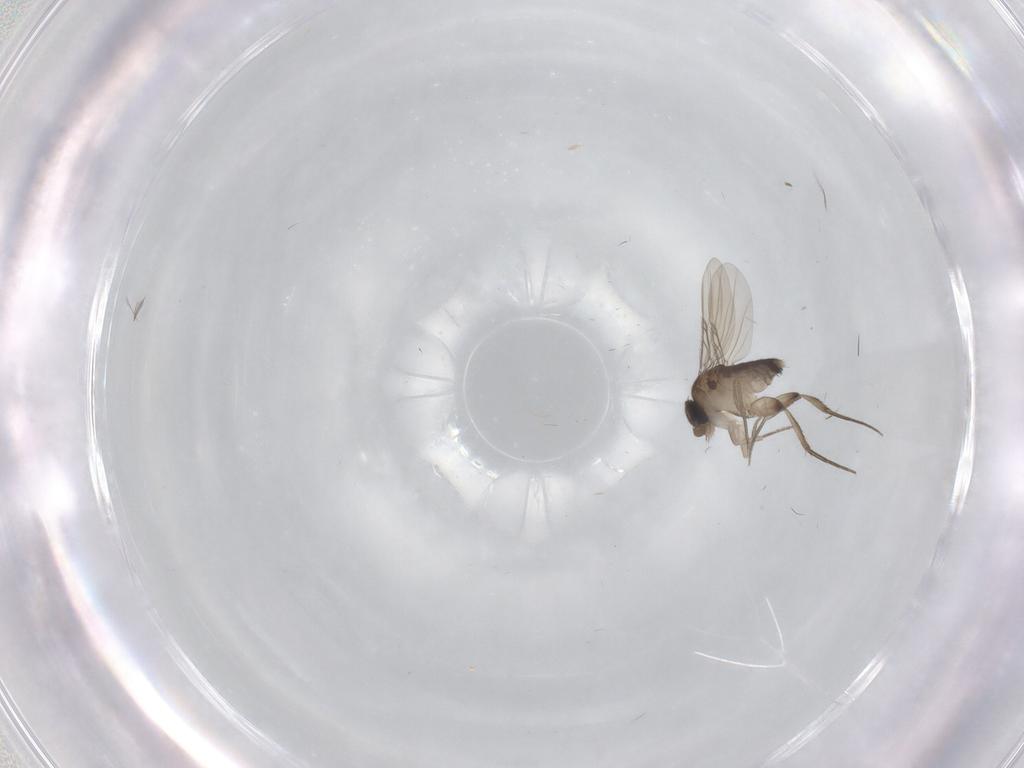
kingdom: Animalia
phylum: Arthropoda
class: Insecta
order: Diptera
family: Phoridae
